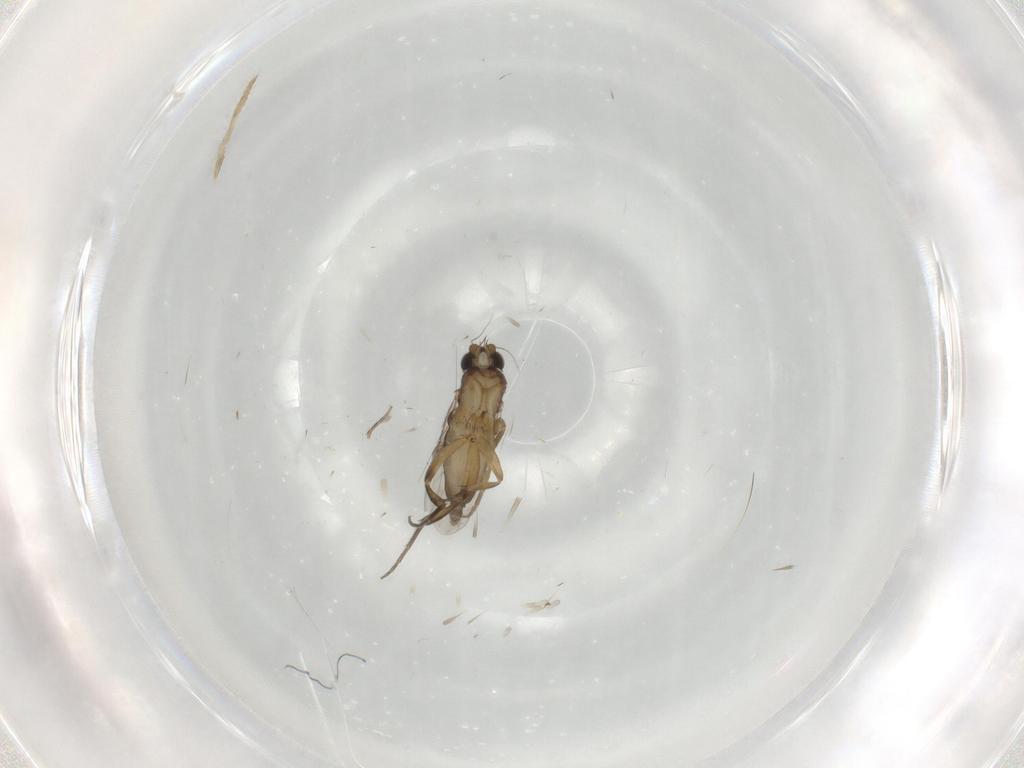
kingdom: Animalia
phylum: Arthropoda
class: Insecta
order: Diptera
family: Phoridae
